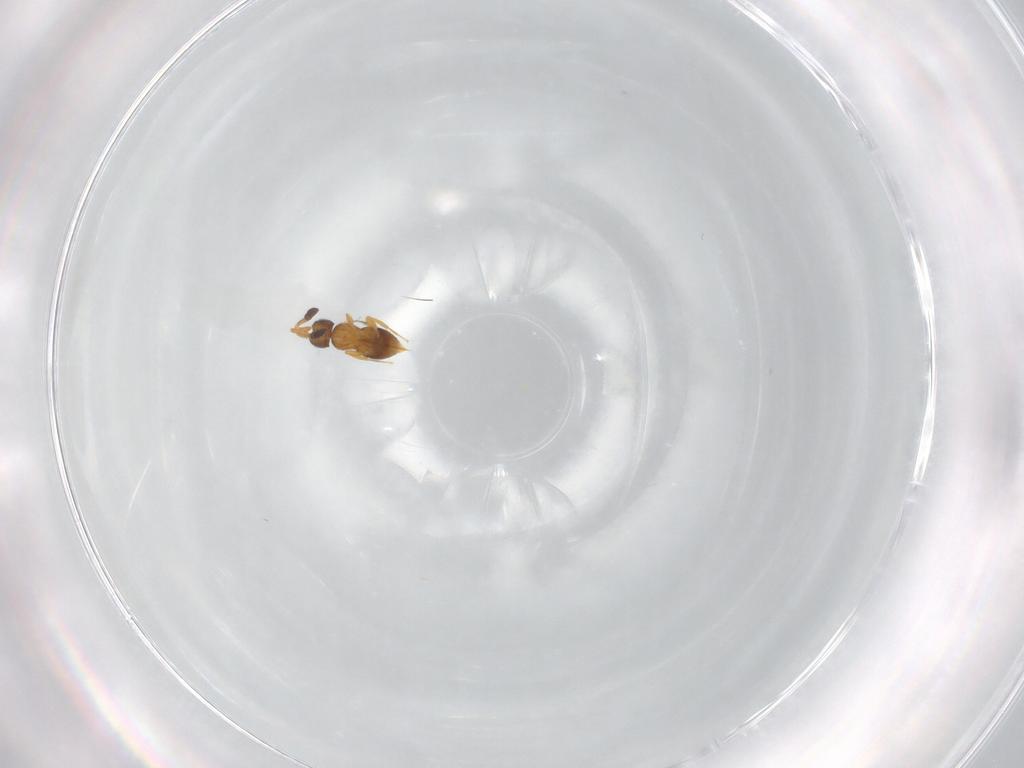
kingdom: Animalia
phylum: Arthropoda
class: Insecta
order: Hymenoptera
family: Ceraphronidae
